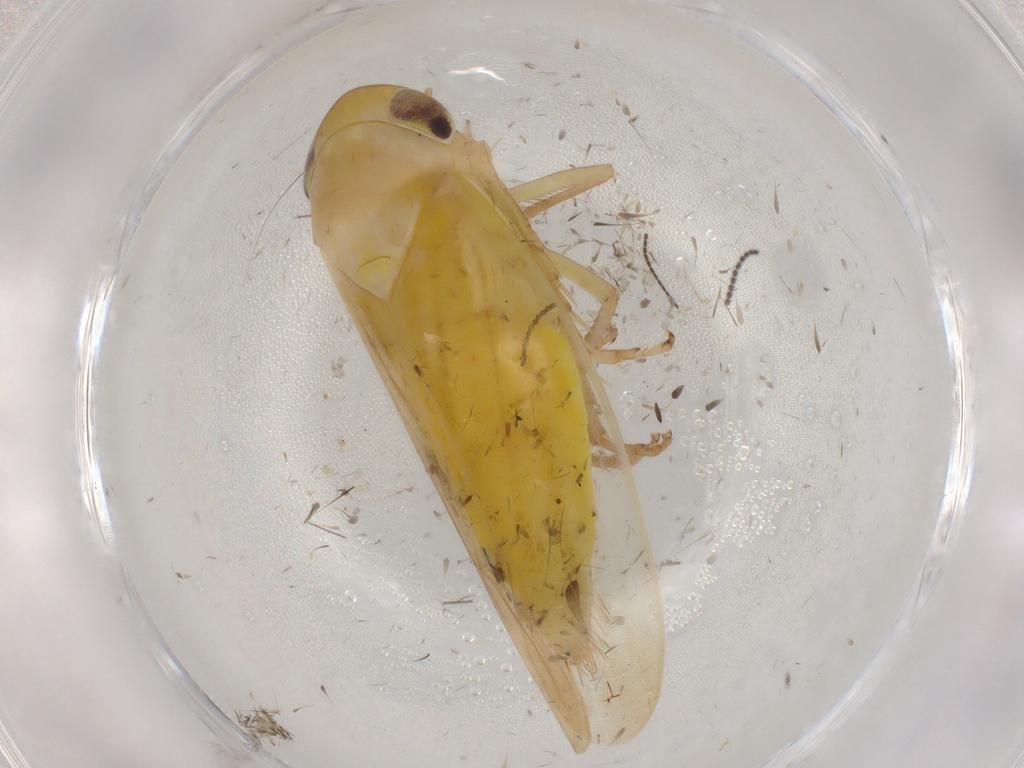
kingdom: Animalia
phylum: Arthropoda
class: Insecta
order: Hemiptera
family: Cicadellidae
